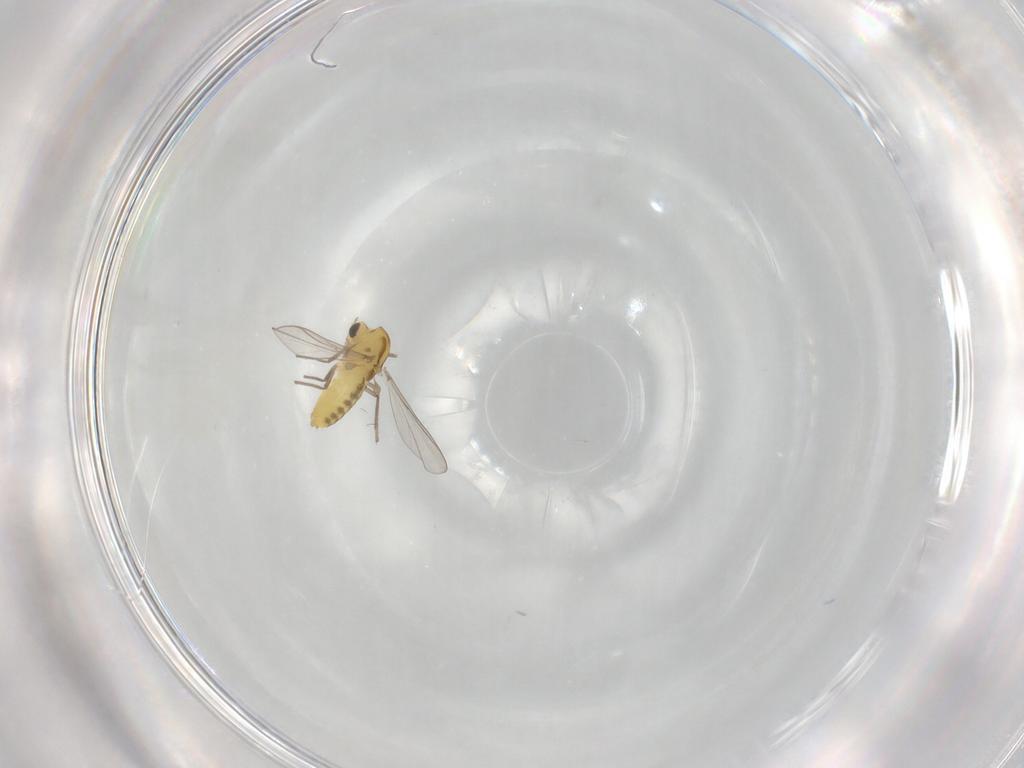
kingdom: Animalia
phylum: Arthropoda
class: Insecta
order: Diptera
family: Chironomidae
